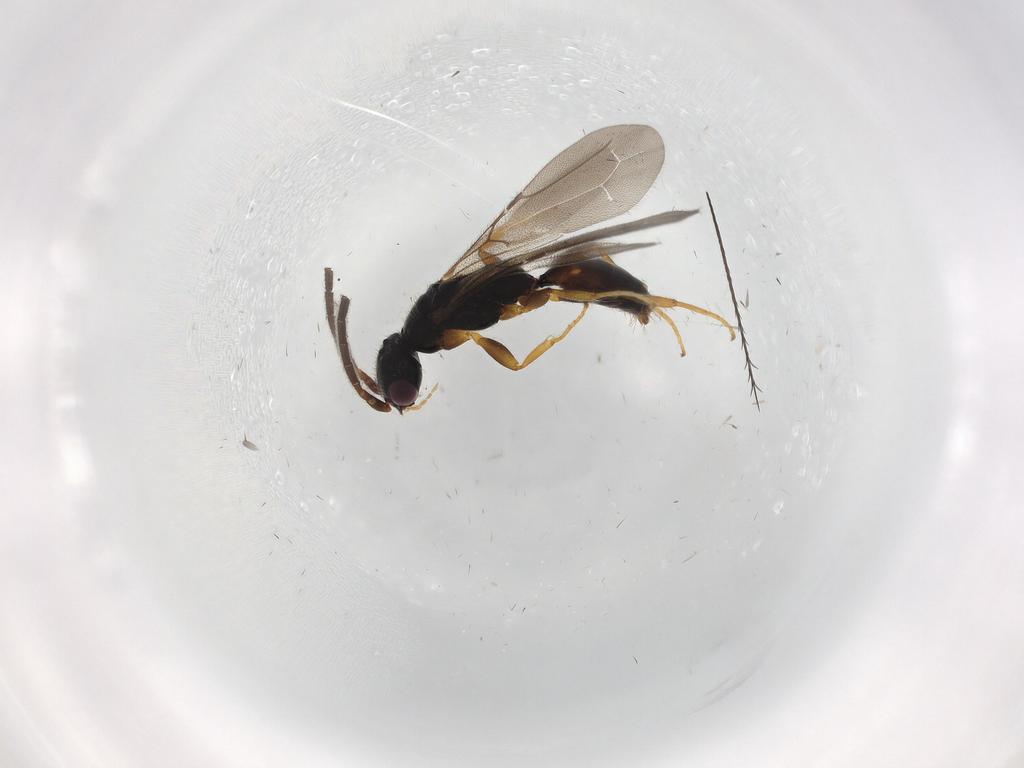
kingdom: Animalia
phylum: Arthropoda
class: Insecta
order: Hymenoptera
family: Bethylidae
